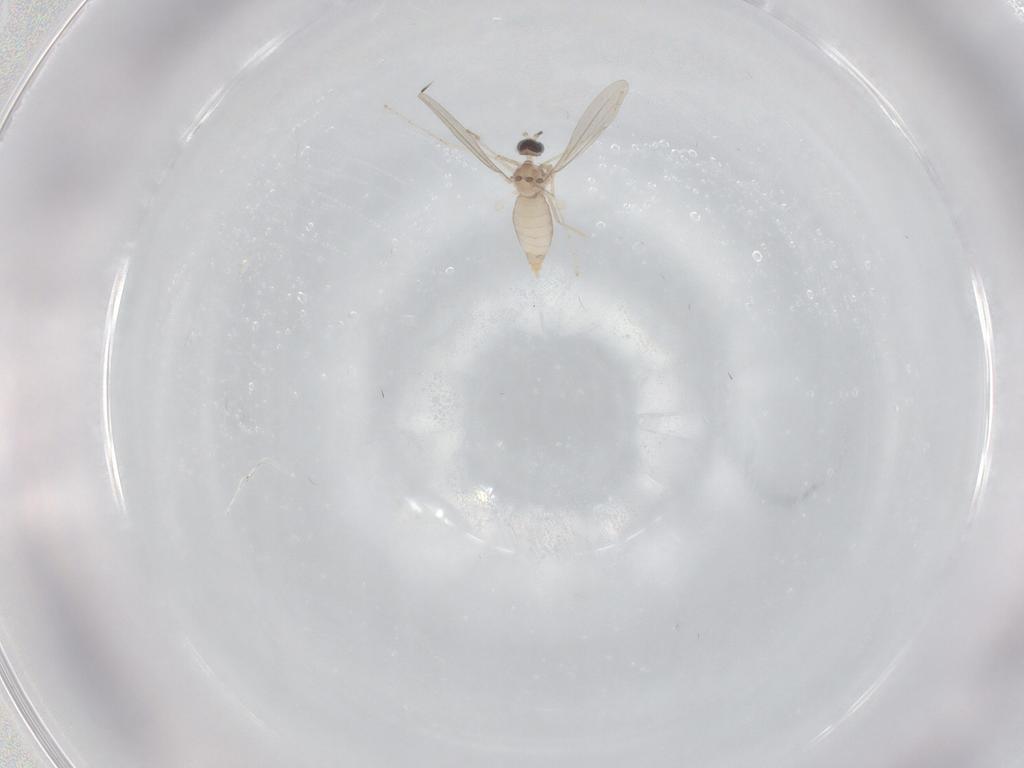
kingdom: Animalia
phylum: Arthropoda
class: Insecta
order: Diptera
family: Cecidomyiidae
